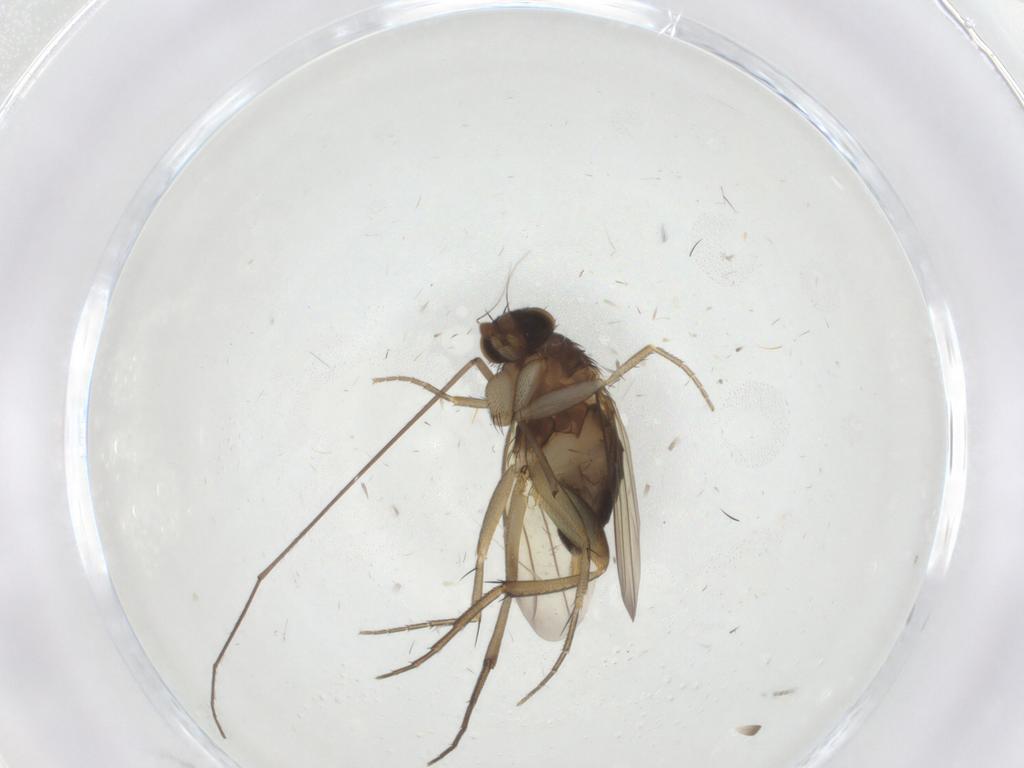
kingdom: Animalia
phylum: Arthropoda
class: Insecta
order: Diptera
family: Phoridae
